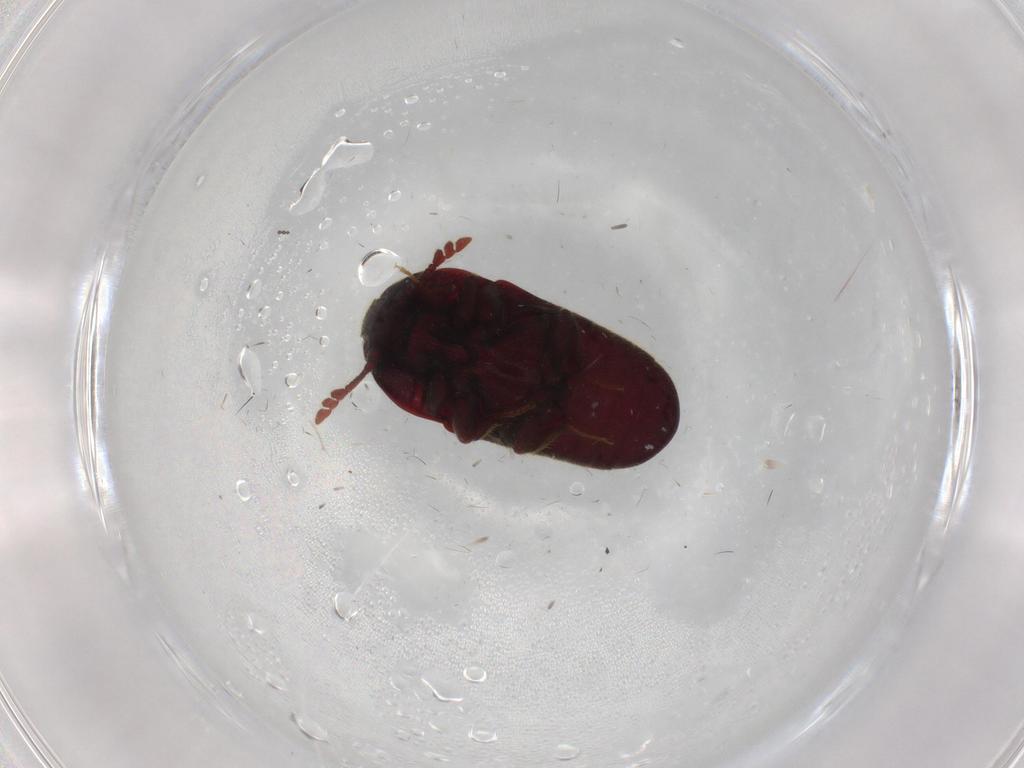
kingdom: Animalia
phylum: Arthropoda
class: Insecta
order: Coleoptera
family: Throscidae
